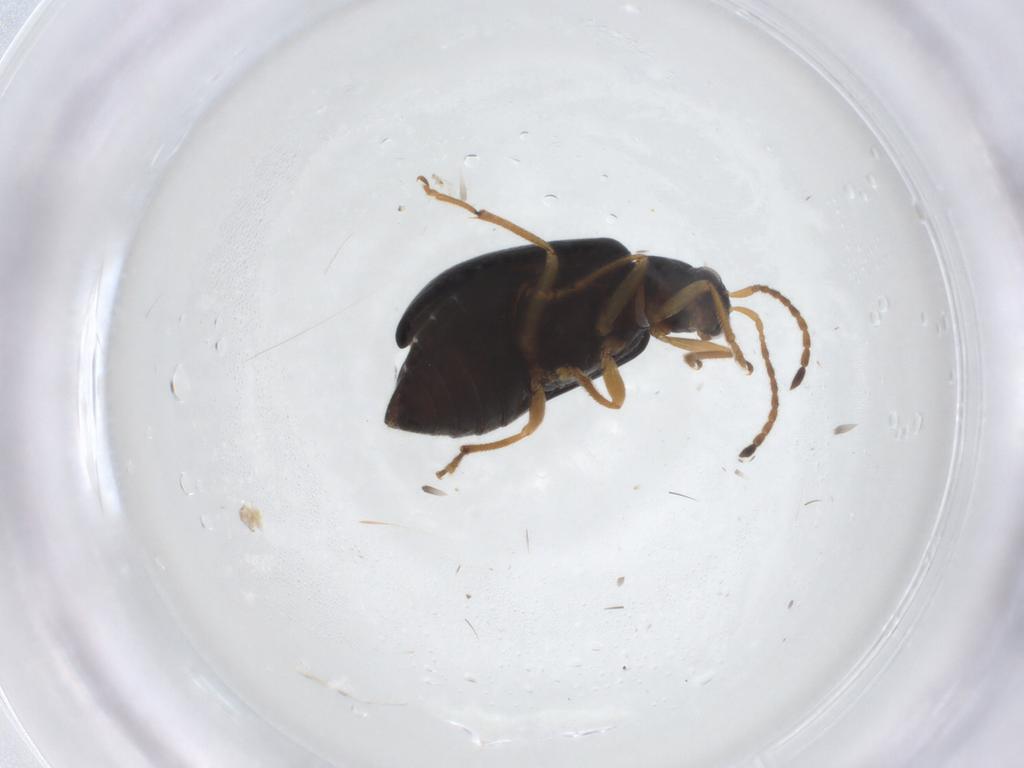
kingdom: Animalia
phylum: Arthropoda
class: Insecta
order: Coleoptera
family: Chrysomelidae
